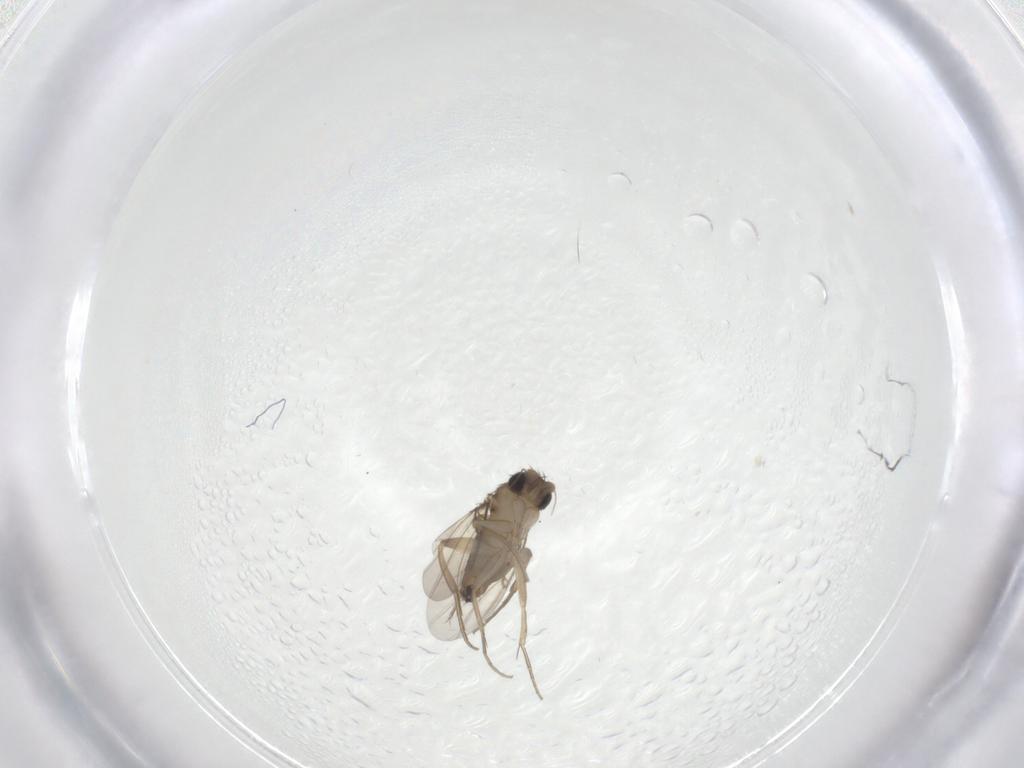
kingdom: Animalia
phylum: Arthropoda
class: Insecta
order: Diptera
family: Phoridae
